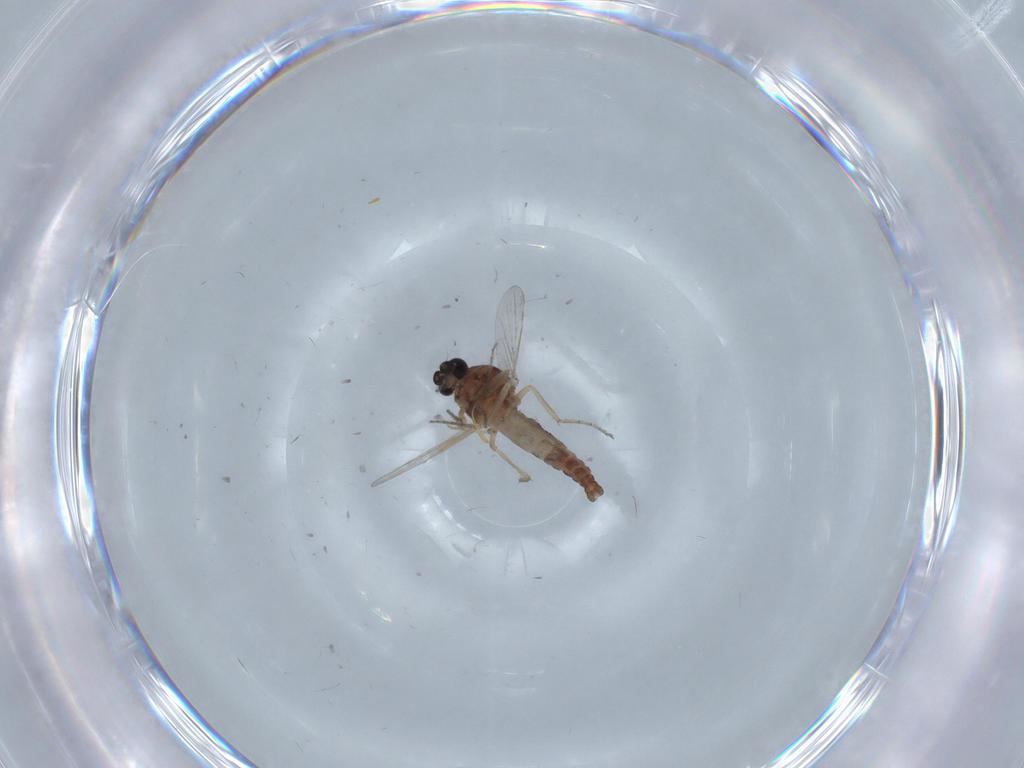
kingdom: Animalia
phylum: Arthropoda
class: Insecta
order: Diptera
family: Ceratopogonidae
